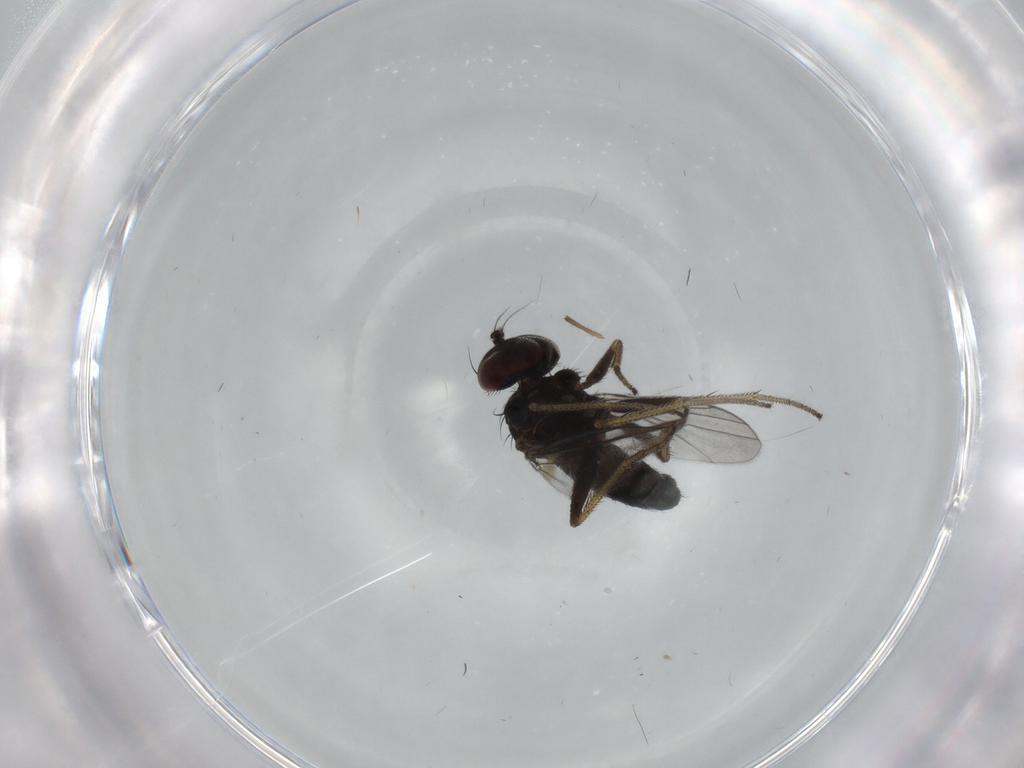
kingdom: Animalia
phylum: Arthropoda
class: Insecta
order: Diptera
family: Dolichopodidae
